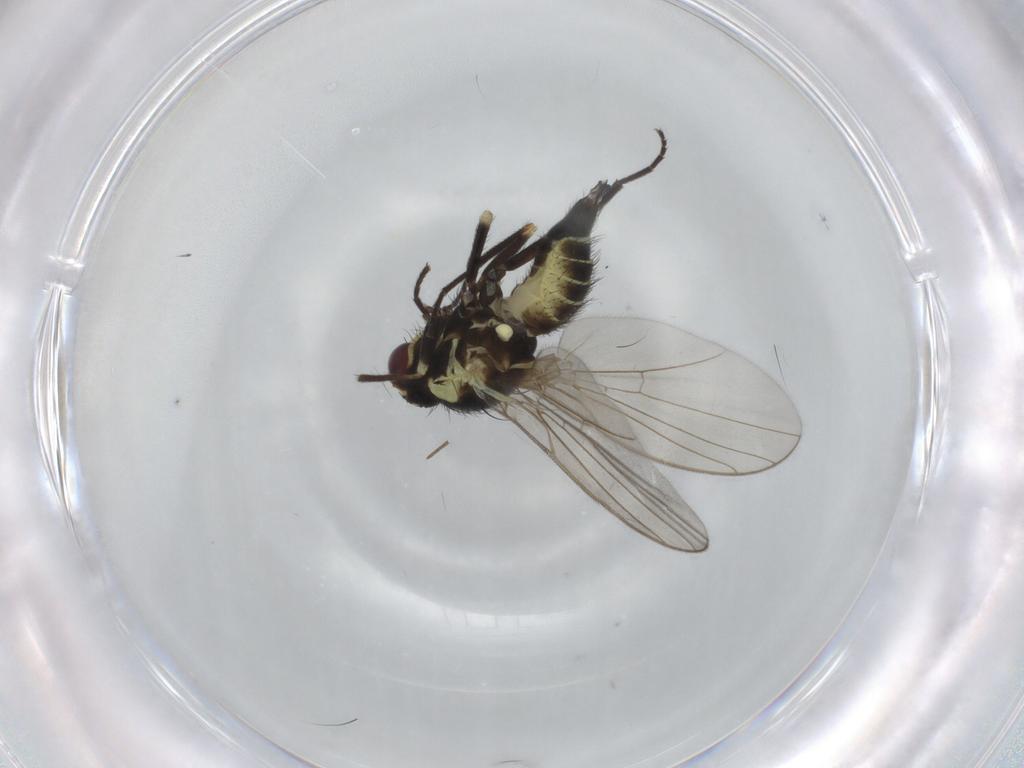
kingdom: Animalia
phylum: Arthropoda
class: Insecta
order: Diptera
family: Agromyzidae
